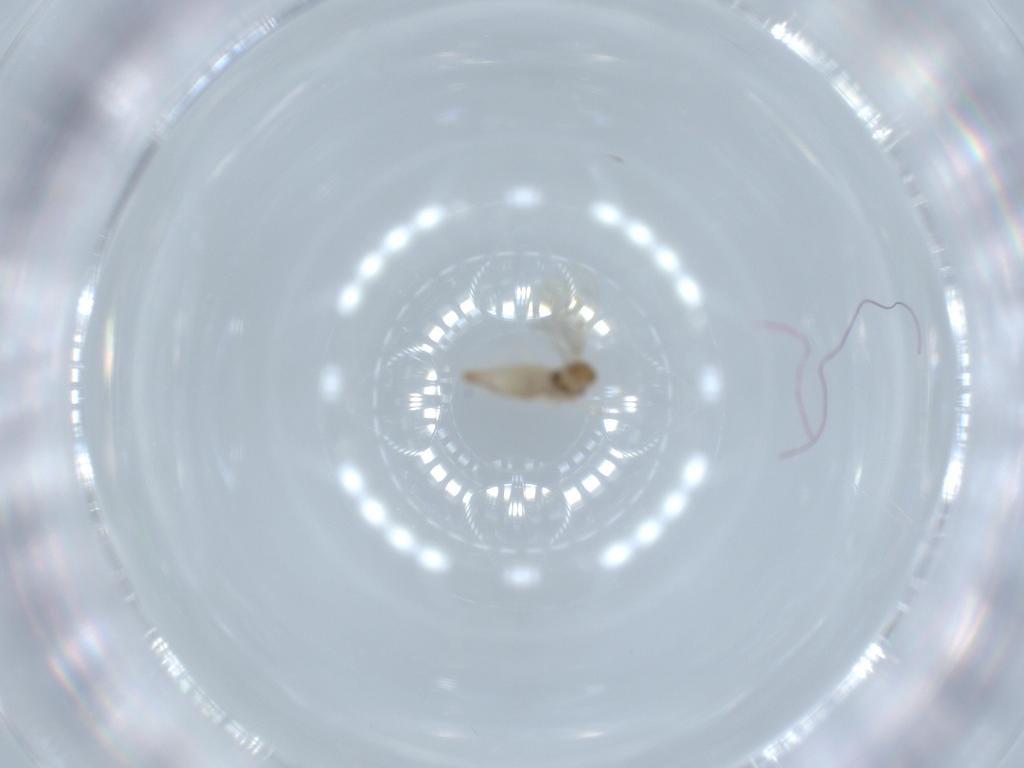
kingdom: Animalia
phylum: Arthropoda
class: Insecta
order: Diptera
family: Cecidomyiidae
